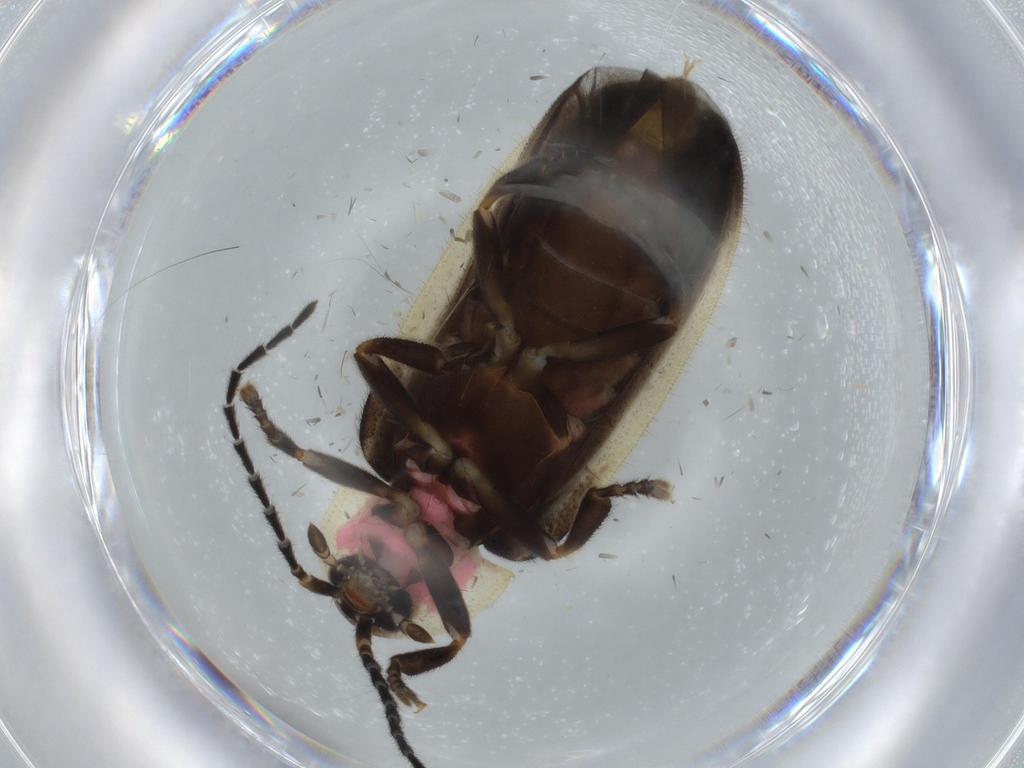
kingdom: Animalia
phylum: Arthropoda
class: Insecta
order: Coleoptera
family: Lampyridae
